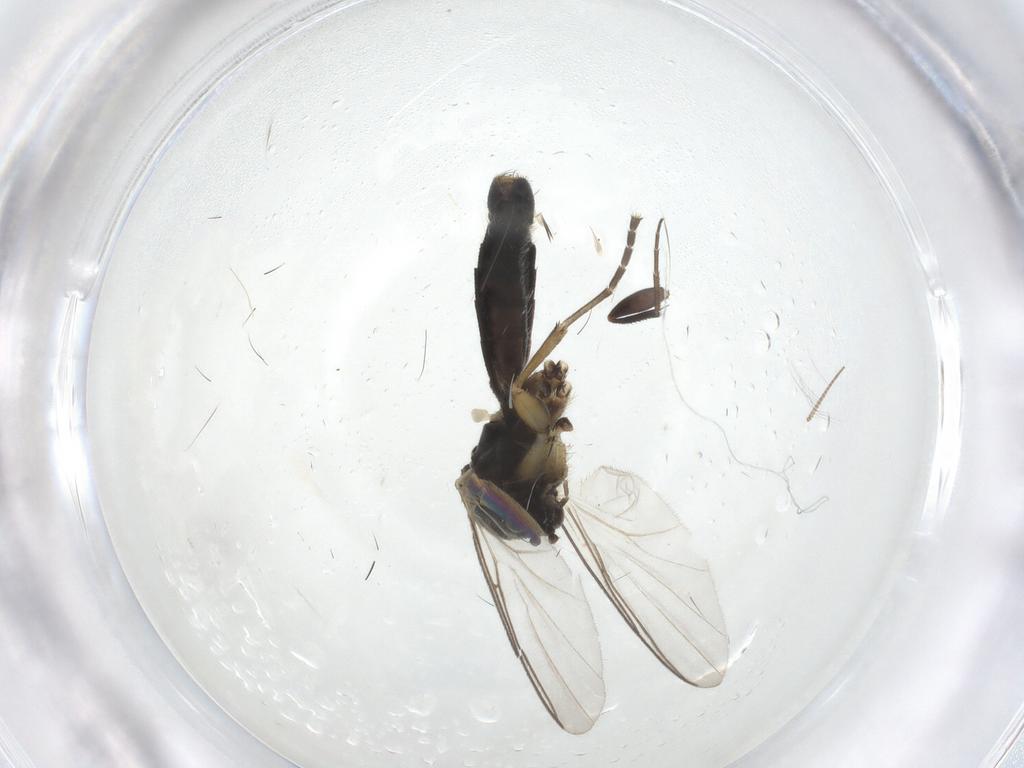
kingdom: Animalia
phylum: Arthropoda
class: Insecta
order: Diptera
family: Mycetophilidae
